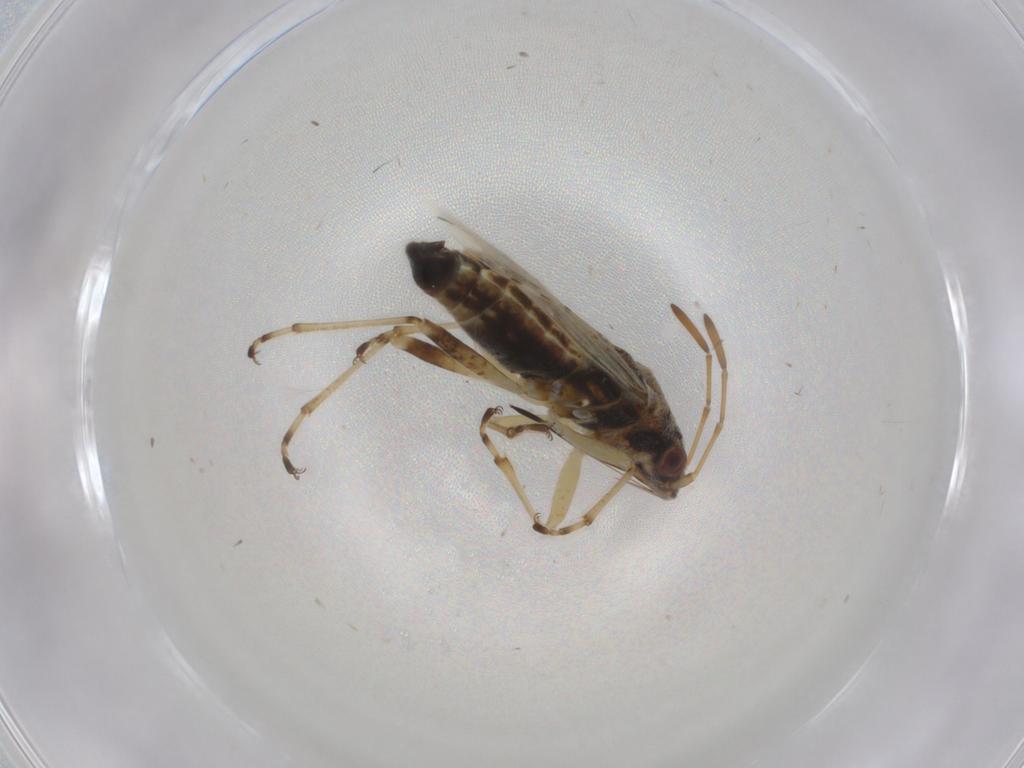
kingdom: Animalia
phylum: Arthropoda
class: Insecta
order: Hemiptera
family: Lygaeidae
